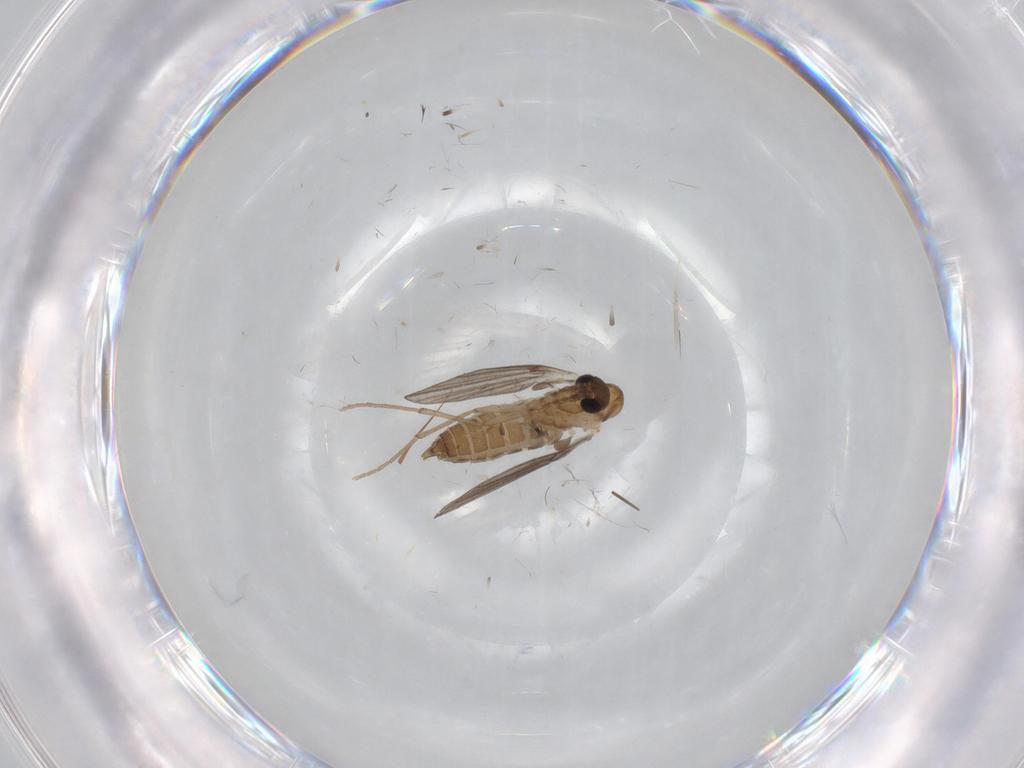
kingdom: Animalia
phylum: Arthropoda
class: Insecta
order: Diptera
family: Cecidomyiidae
